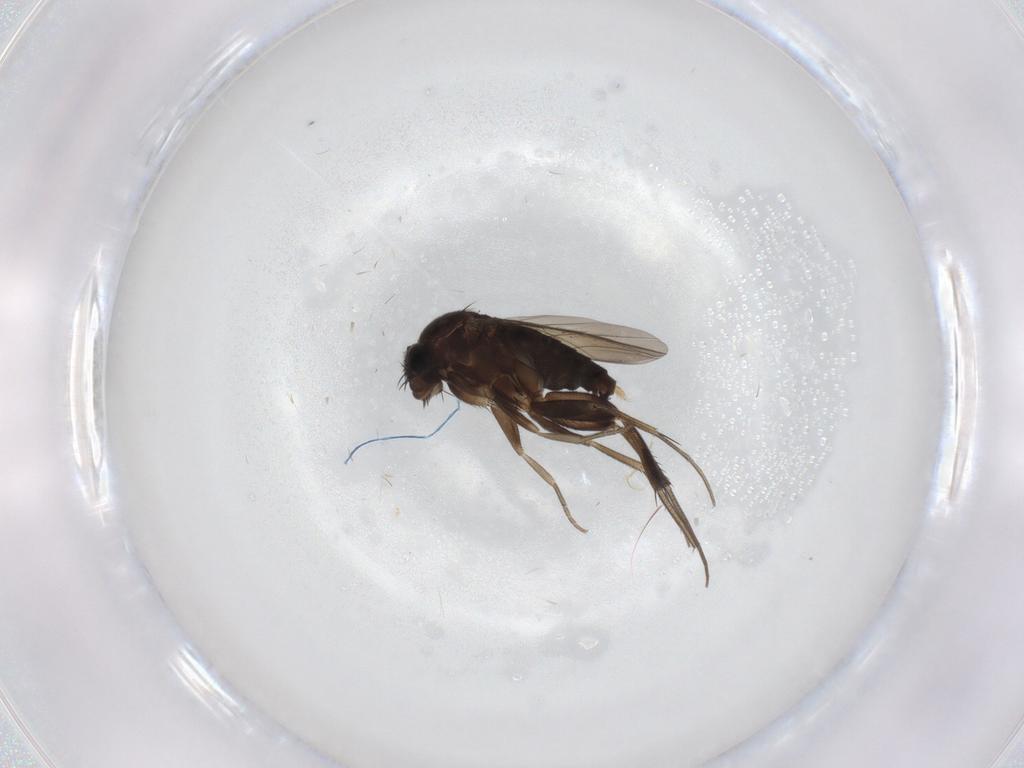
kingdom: Animalia
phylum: Arthropoda
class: Insecta
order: Diptera
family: Phoridae
